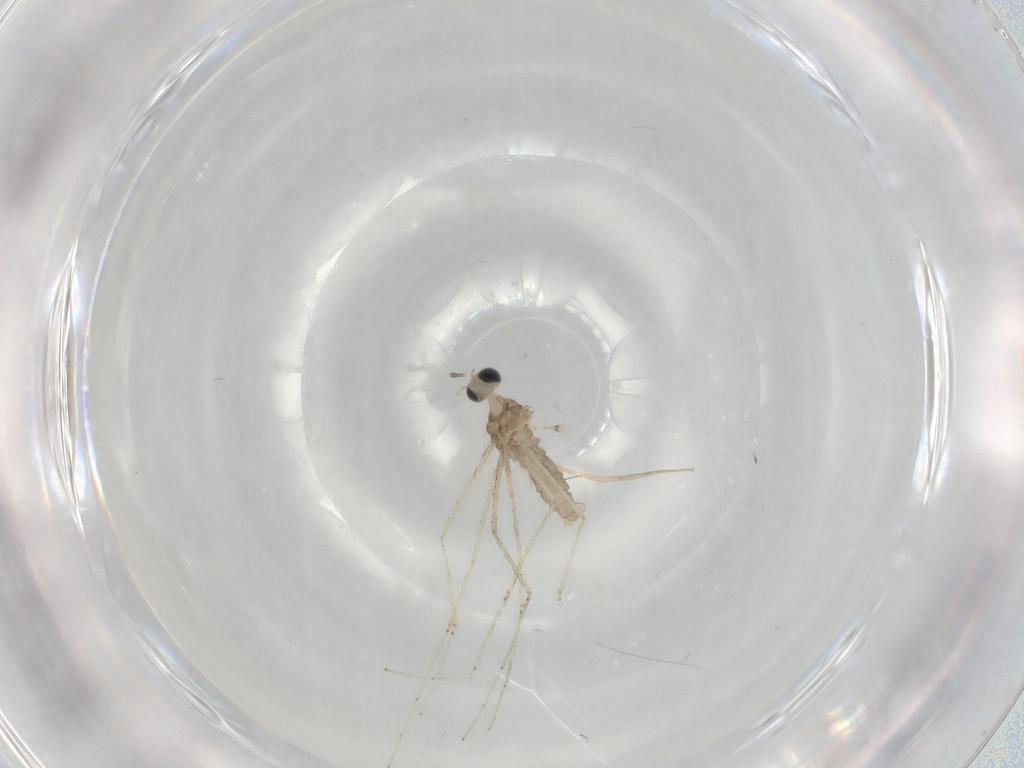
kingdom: Animalia
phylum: Arthropoda
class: Insecta
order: Diptera
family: Cecidomyiidae
